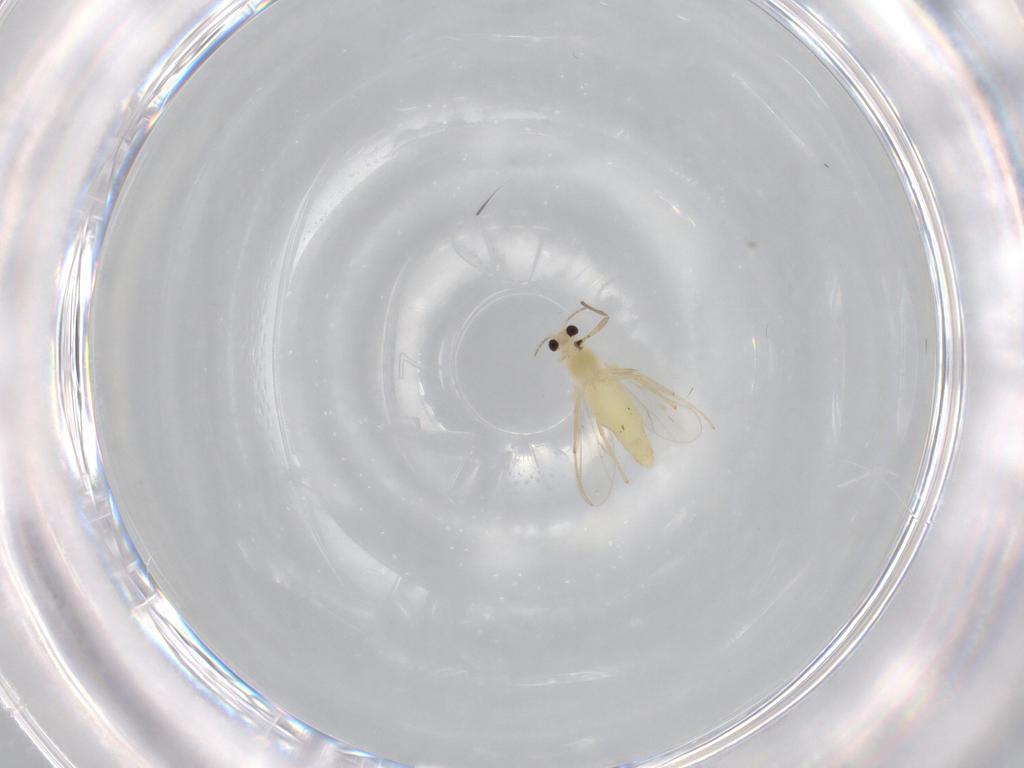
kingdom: Animalia
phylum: Arthropoda
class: Insecta
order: Diptera
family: Chironomidae
